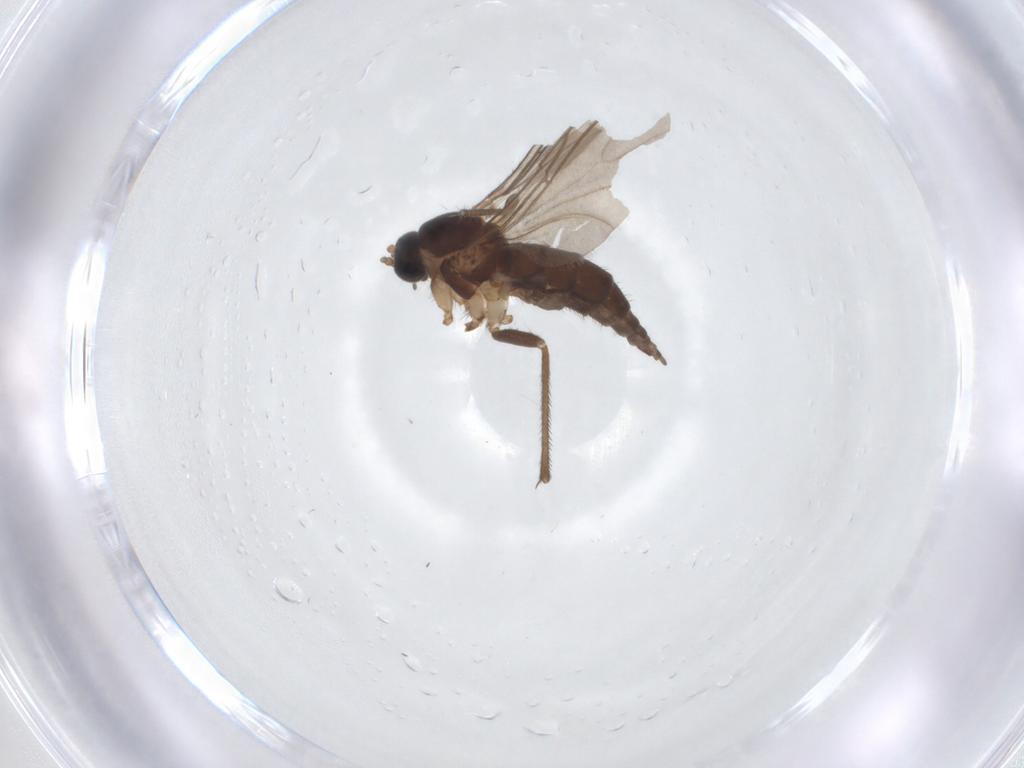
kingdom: Animalia
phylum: Arthropoda
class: Insecta
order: Diptera
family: Sciaridae
